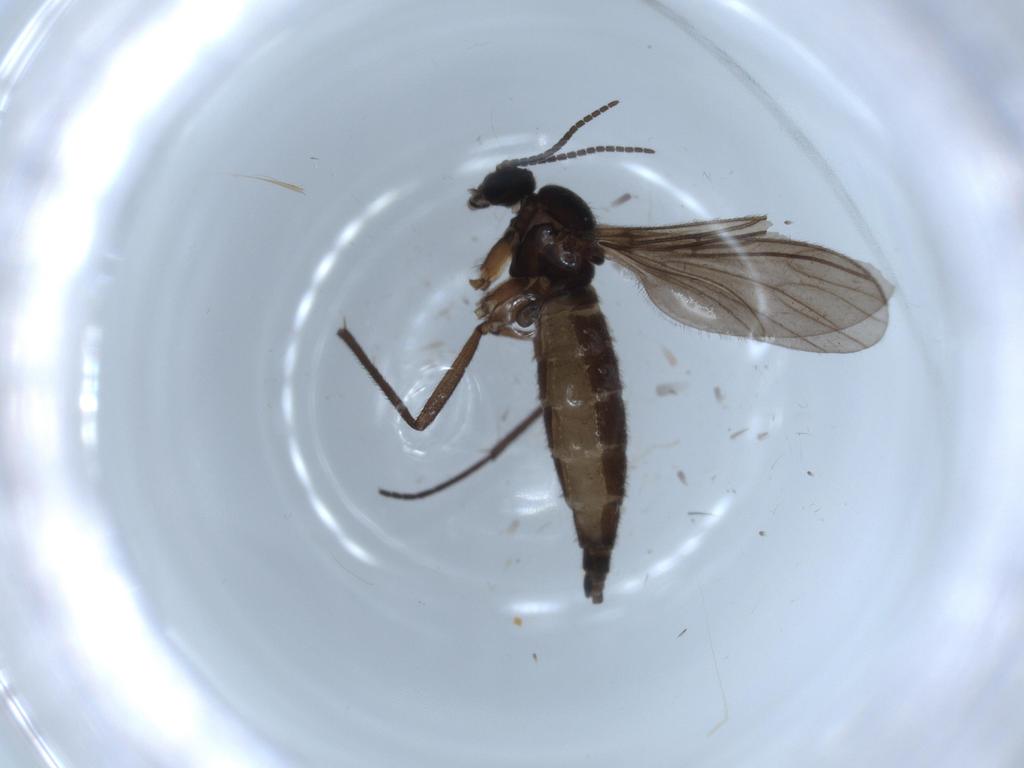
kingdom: Animalia
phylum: Arthropoda
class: Insecta
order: Diptera
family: Sciaridae
